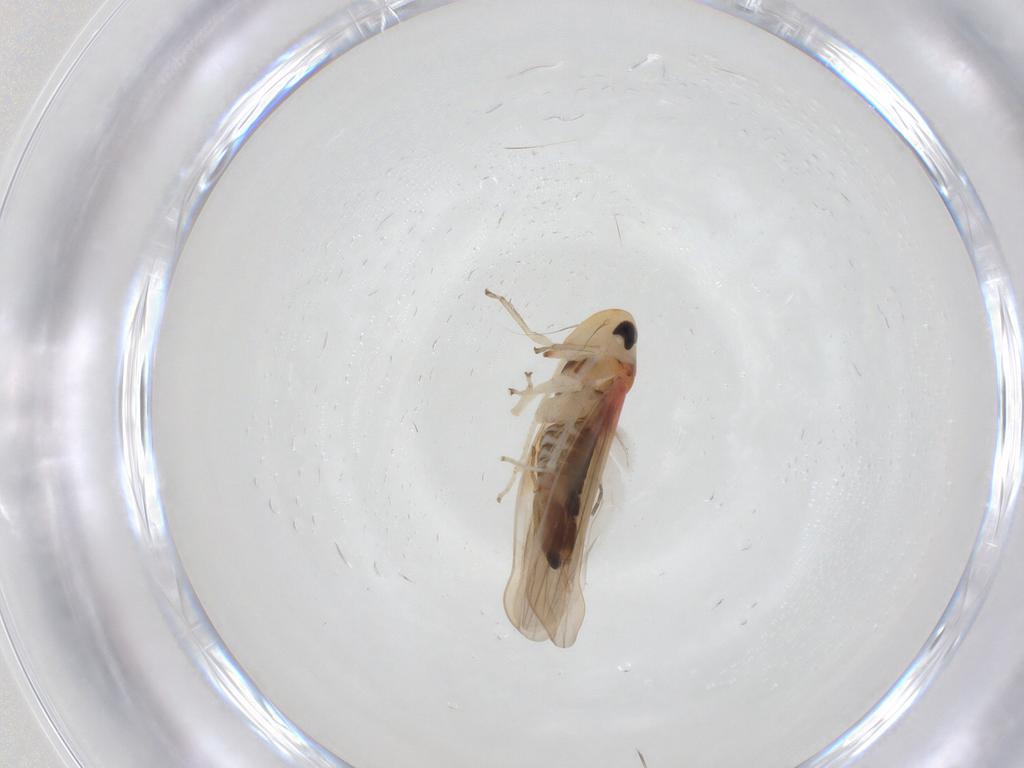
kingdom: Animalia
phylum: Arthropoda
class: Insecta
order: Hemiptera
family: Cicadellidae
